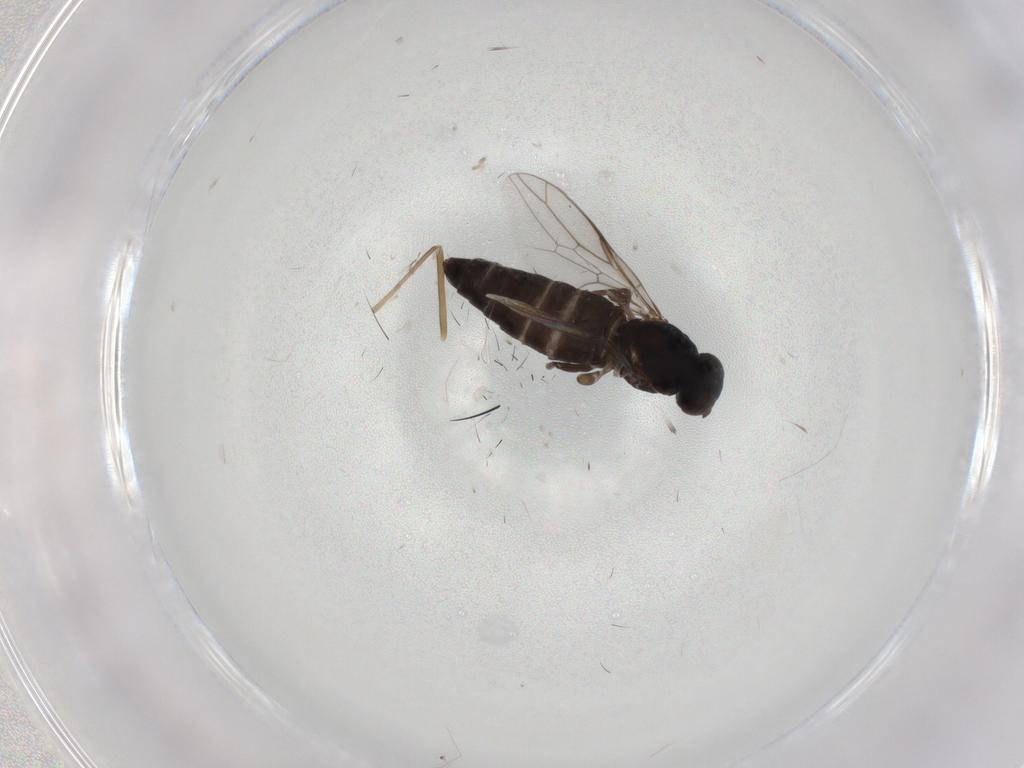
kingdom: Animalia
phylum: Arthropoda
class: Insecta
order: Diptera
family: Scenopinidae
